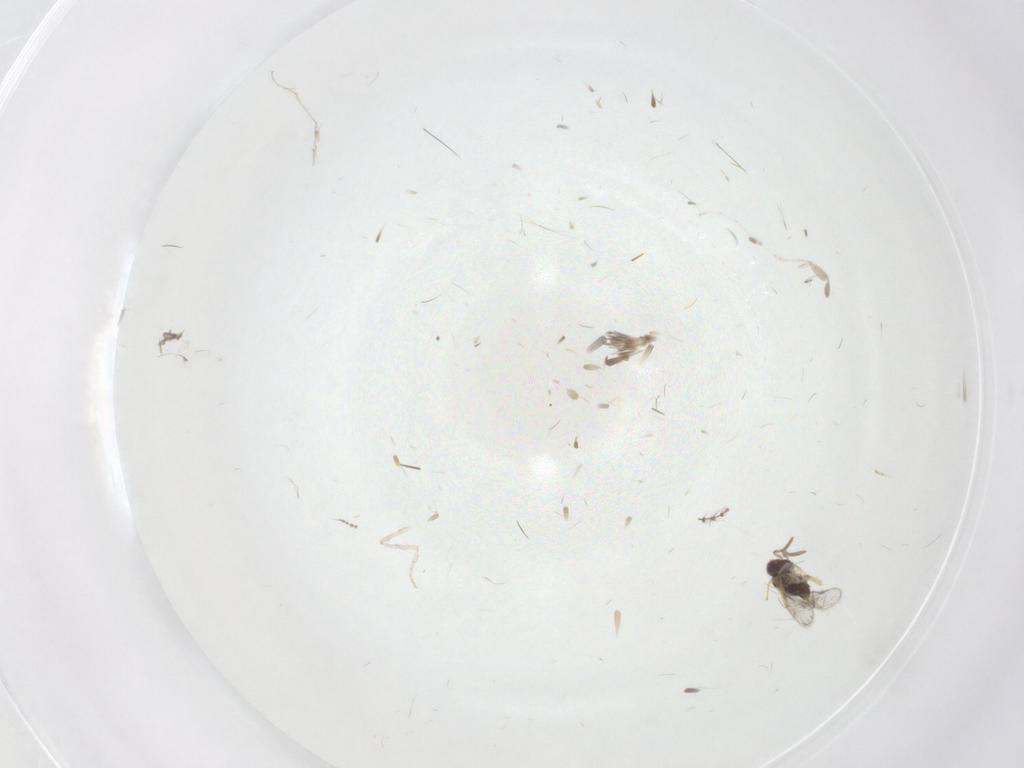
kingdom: Animalia
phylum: Arthropoda
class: Insecta
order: Diptera
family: Cecidomyiidae
